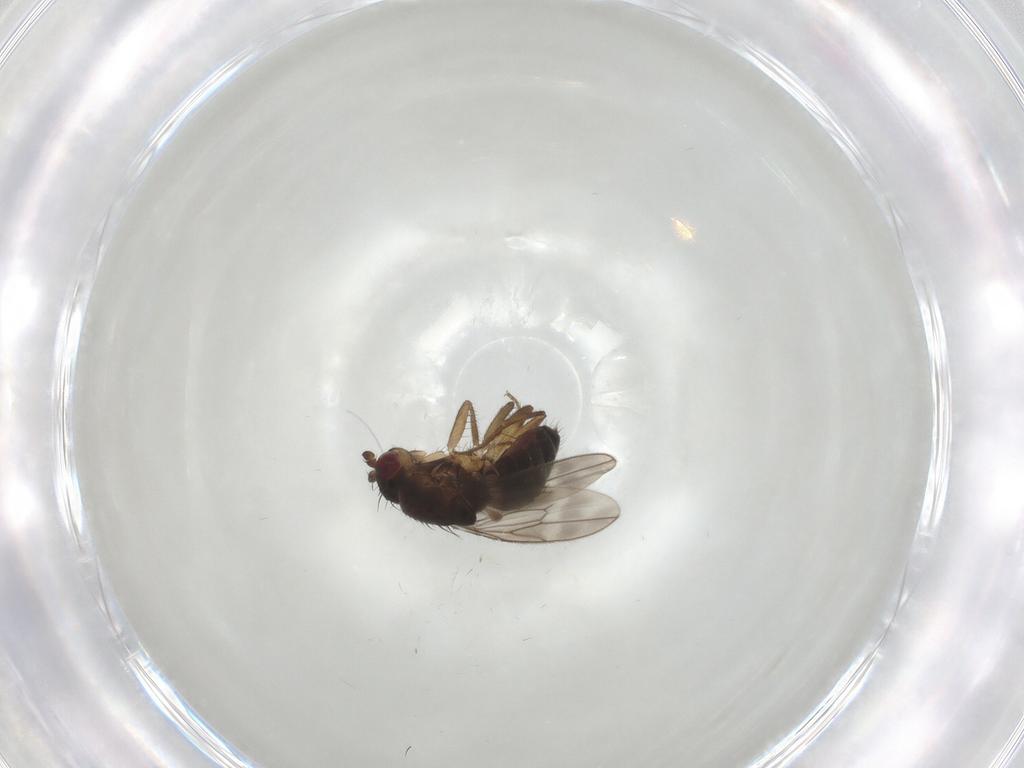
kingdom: Animalia
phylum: Arthropoda
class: Insecta
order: Diptera
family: Sphaeroceridae
